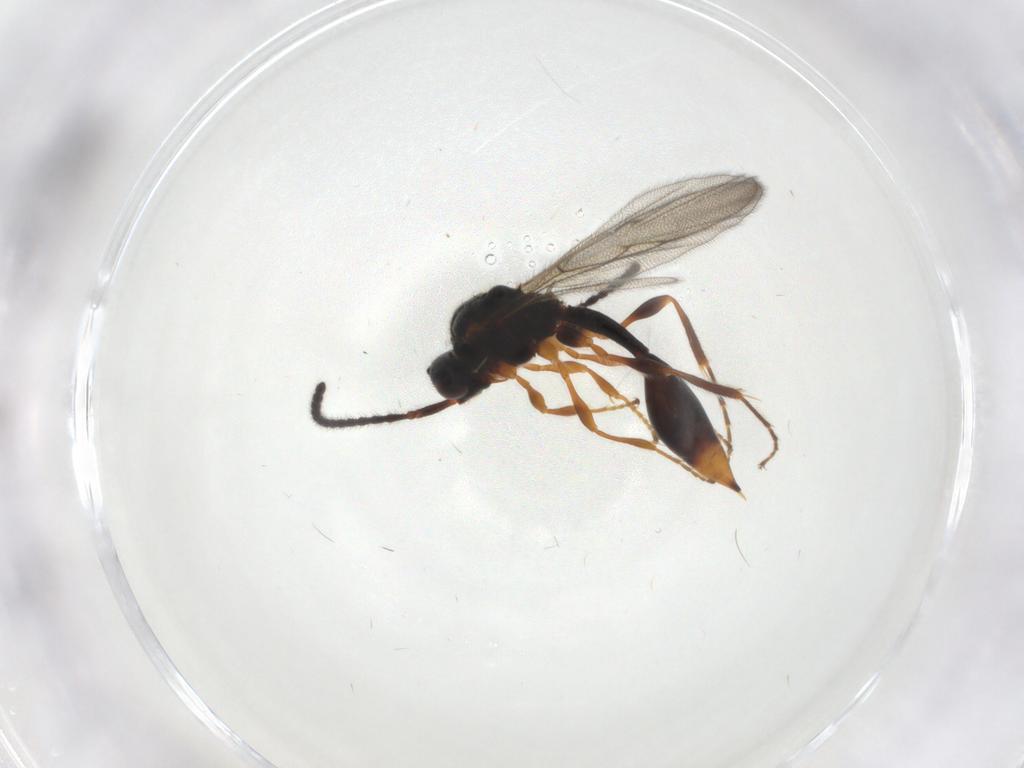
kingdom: Animalia
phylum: Arthropoda
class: Insecta
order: Hymenoptera
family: Diapriidae
